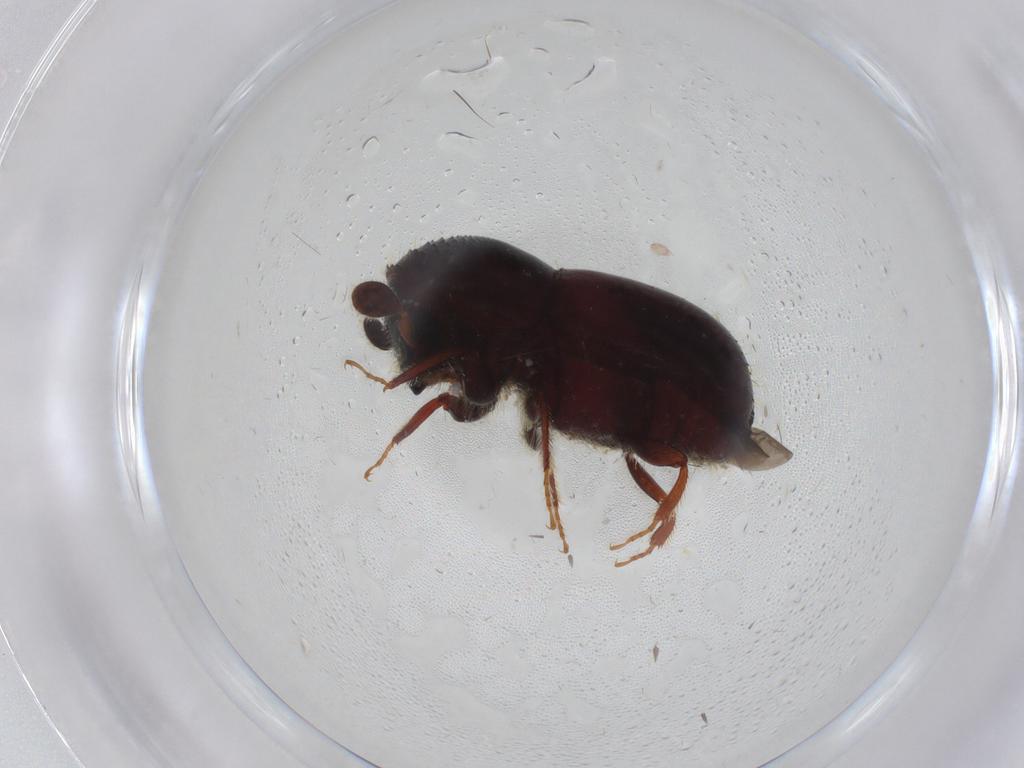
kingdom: Animalia
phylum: Arthropoda
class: Insecta
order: Coleoptera
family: Curculionidae
